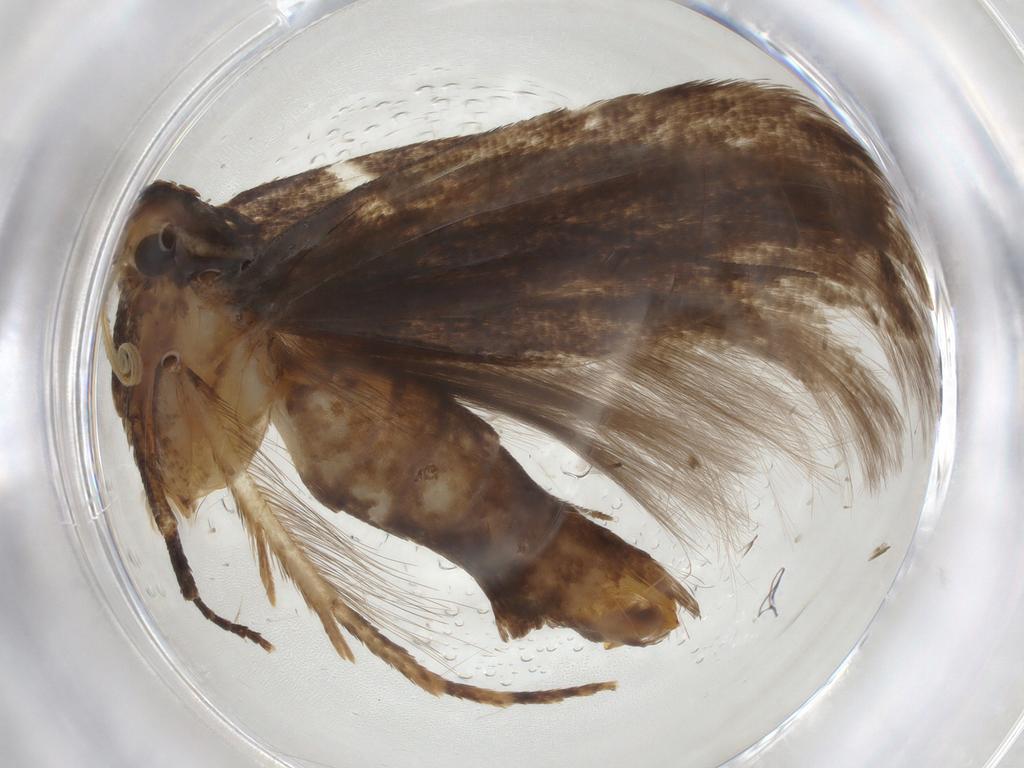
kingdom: Animalia
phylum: Arthropoda
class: Insecta
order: Lepidoptera
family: Gelechiidae
